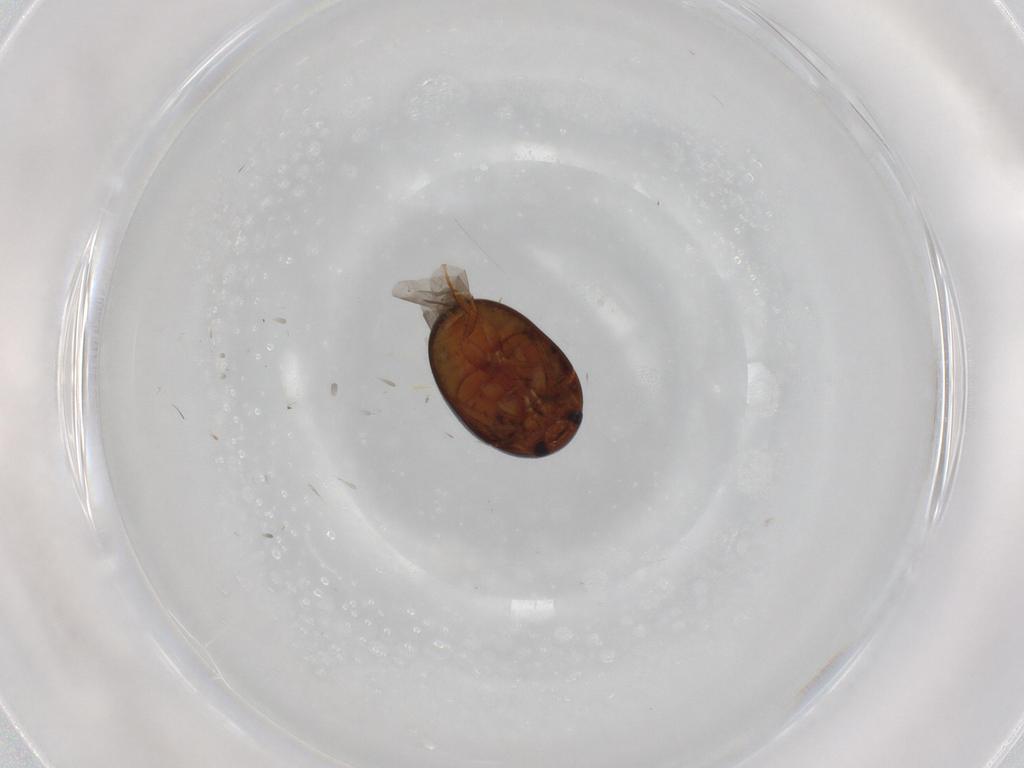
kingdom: Animalia
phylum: Arthropoda
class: Insecta
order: Coleoptera
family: Phalacridae
